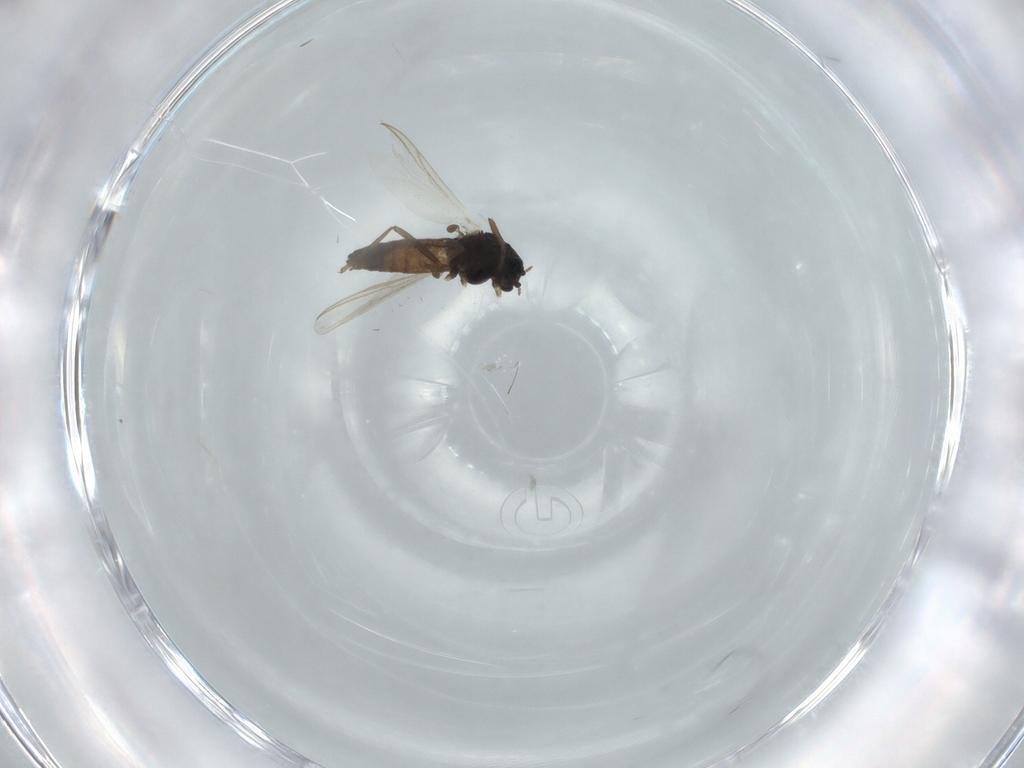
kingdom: Animalia
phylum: Arthropoda
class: Insecta
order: Diptera
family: Chironomidae
